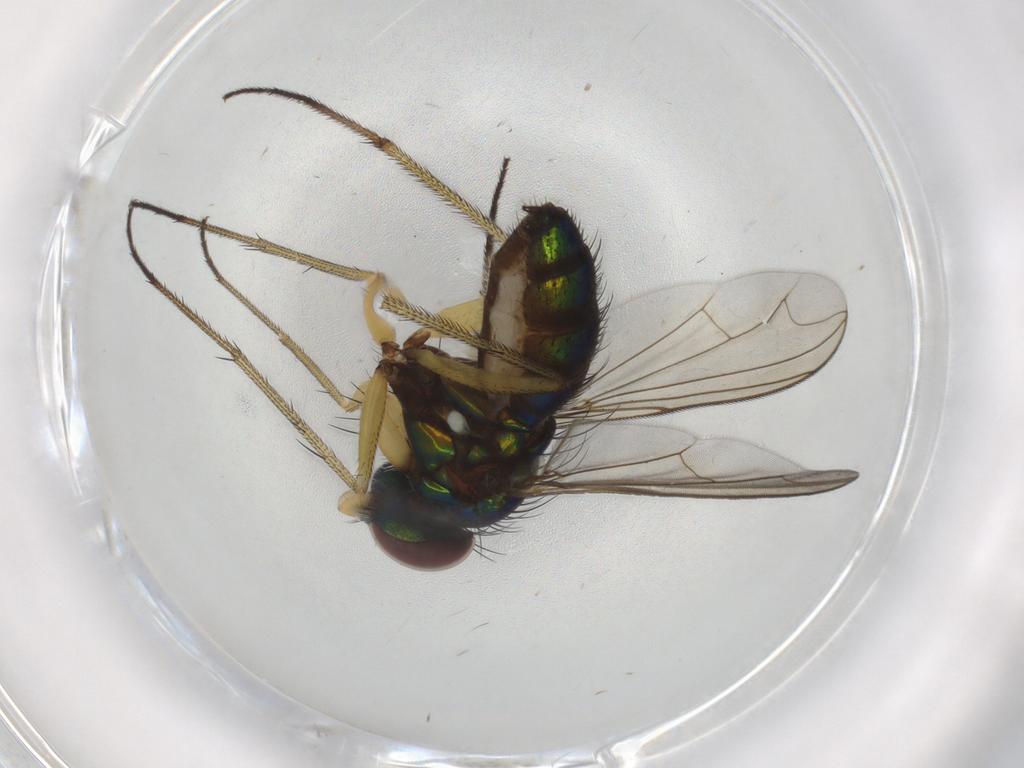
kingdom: Animalia
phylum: Arthropoda
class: Insecta
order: Diptera
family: Dolichopodidae
